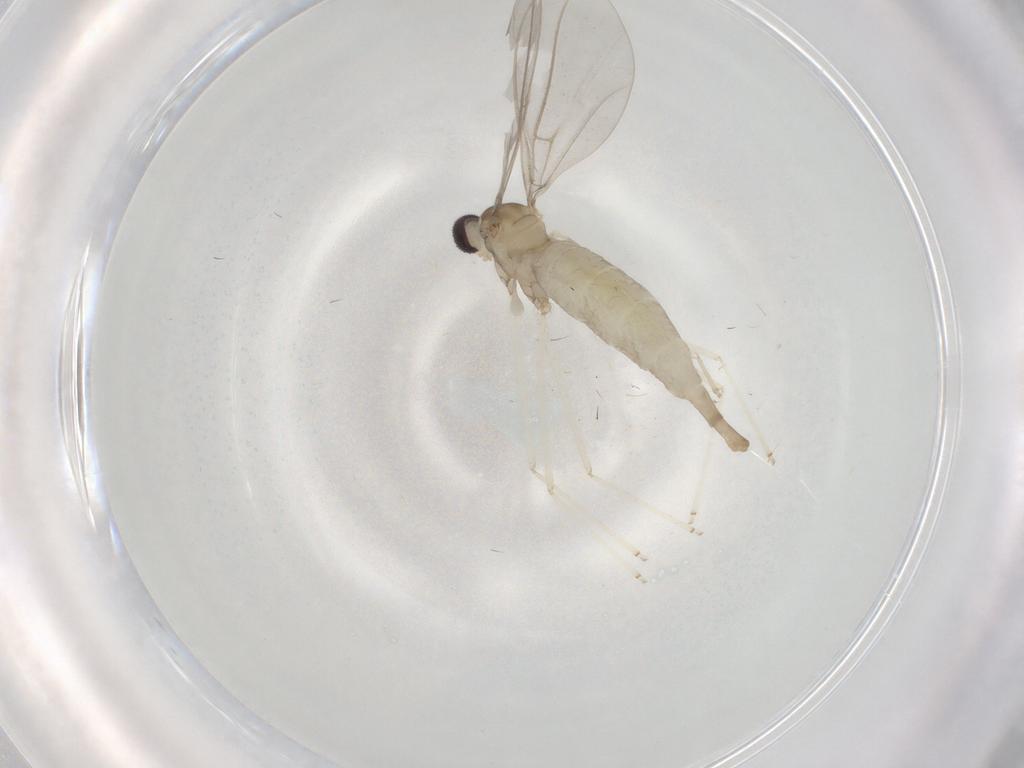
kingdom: Animalia
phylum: Arthropoda
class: Insecta
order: Diptera
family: Cecidomyiidae
